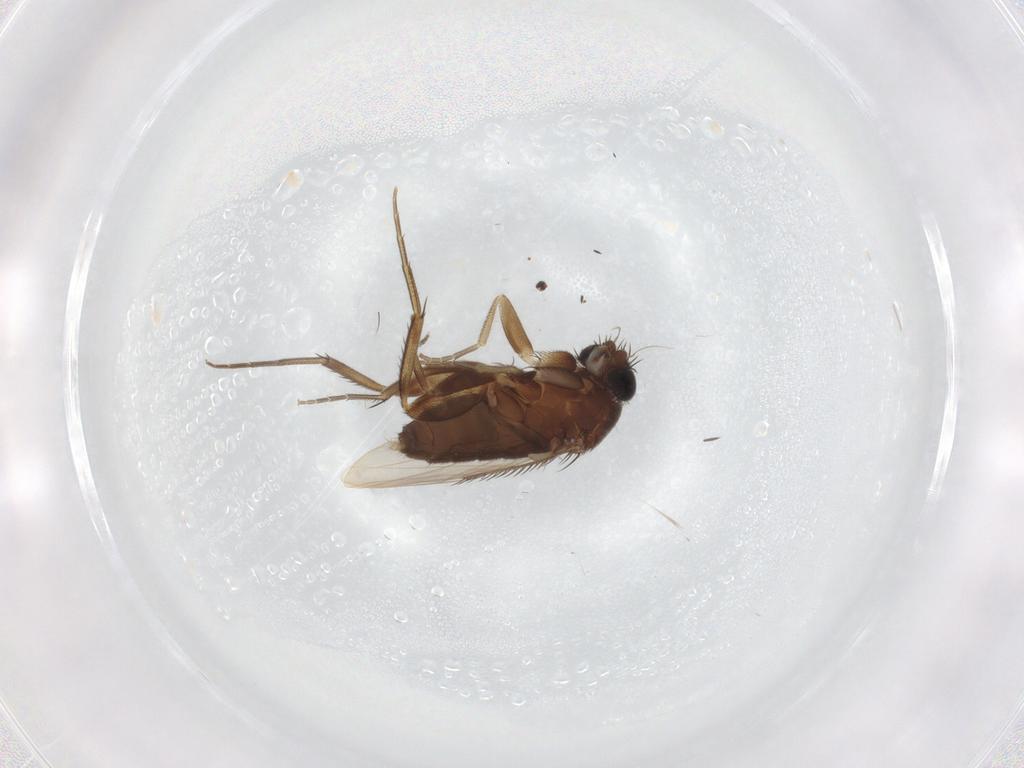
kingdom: Animalia
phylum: Arthropoda
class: Insecta
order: Diptera
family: Phoridae
